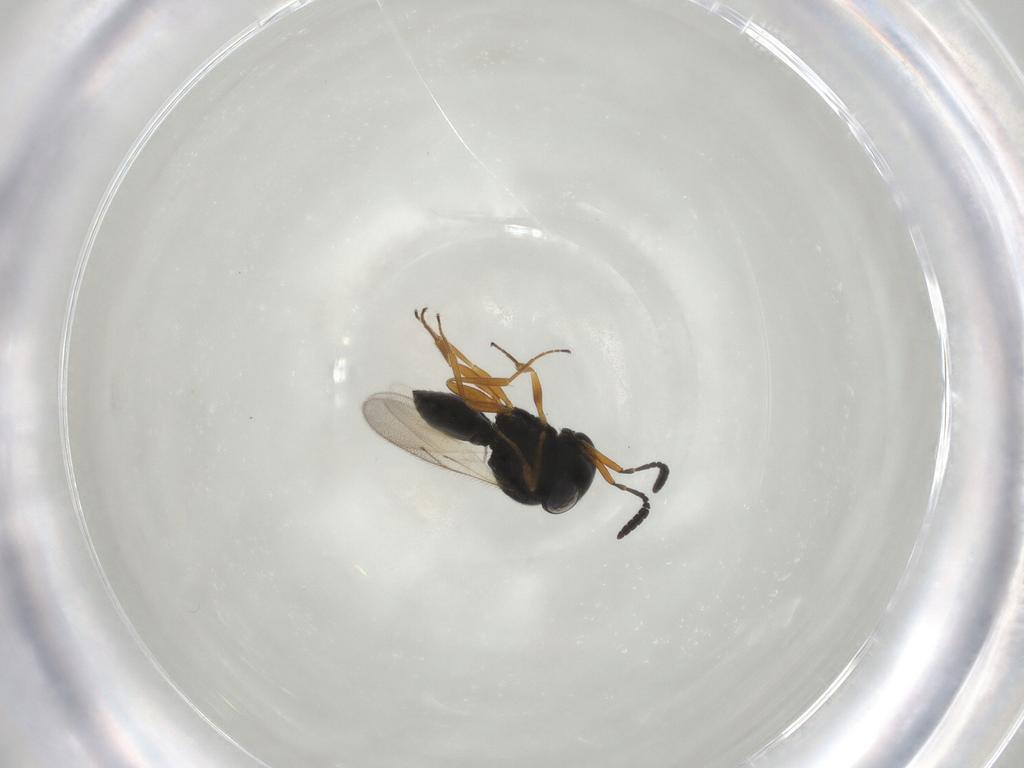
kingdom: Animalia
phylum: Arthropoda
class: Insecta
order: Hymenoptera
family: Scelionidae
